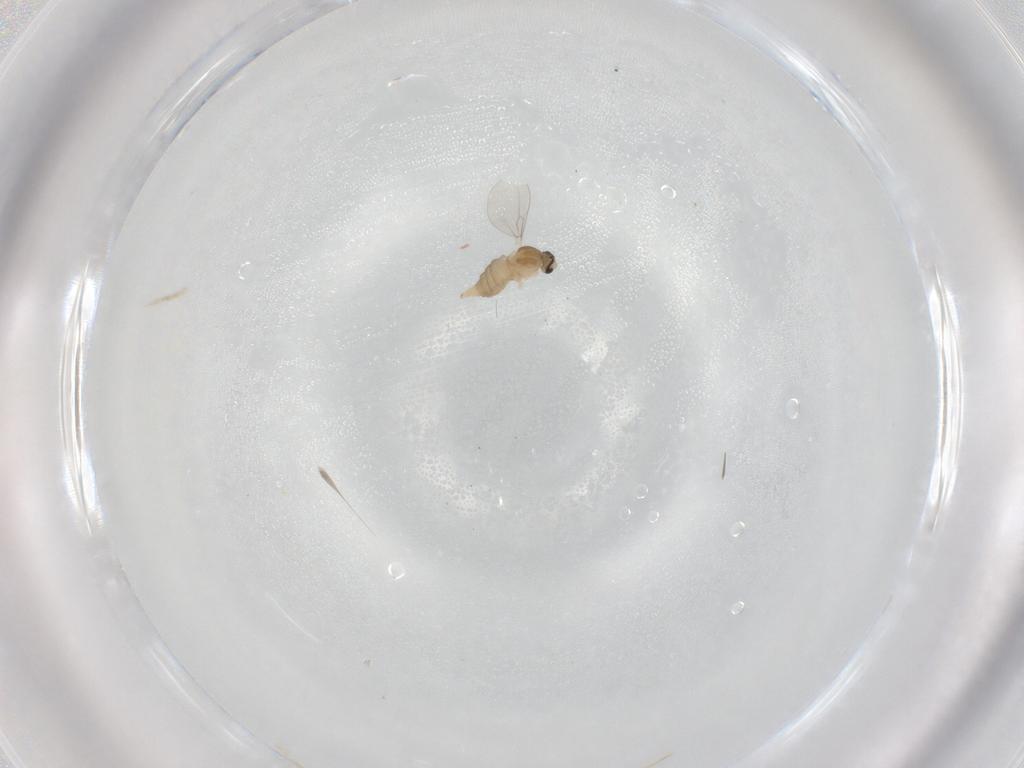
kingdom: Animalia
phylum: Arthropoda
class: Insecta
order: Diptera
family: Cecidomyiidae
